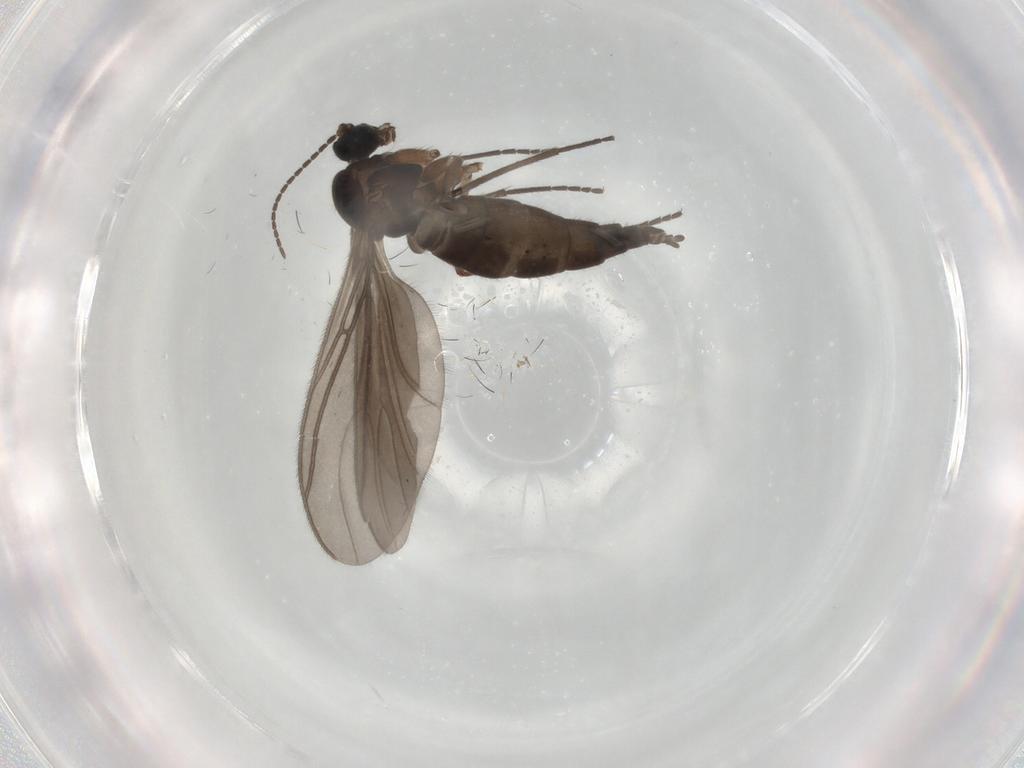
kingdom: Animalia
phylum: Arthropoda
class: Insecta
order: Diptera
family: Sciaridae
